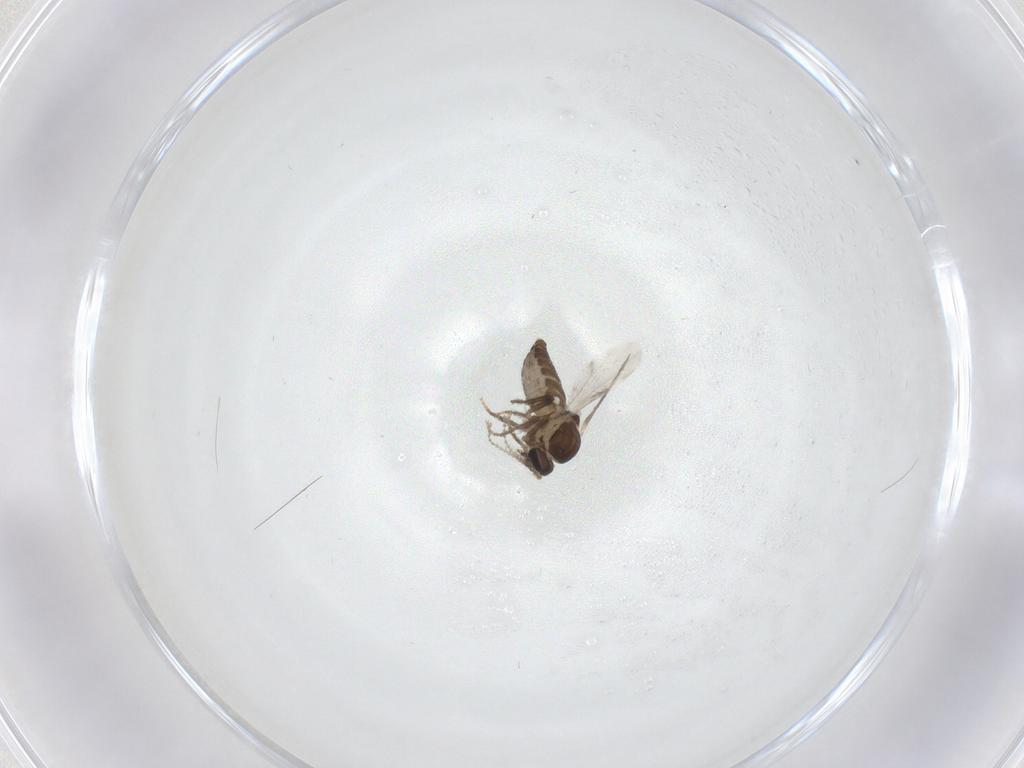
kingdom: Animalia
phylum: Arthropoda
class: Insecta
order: Diptera
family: Ceratopogonidae
